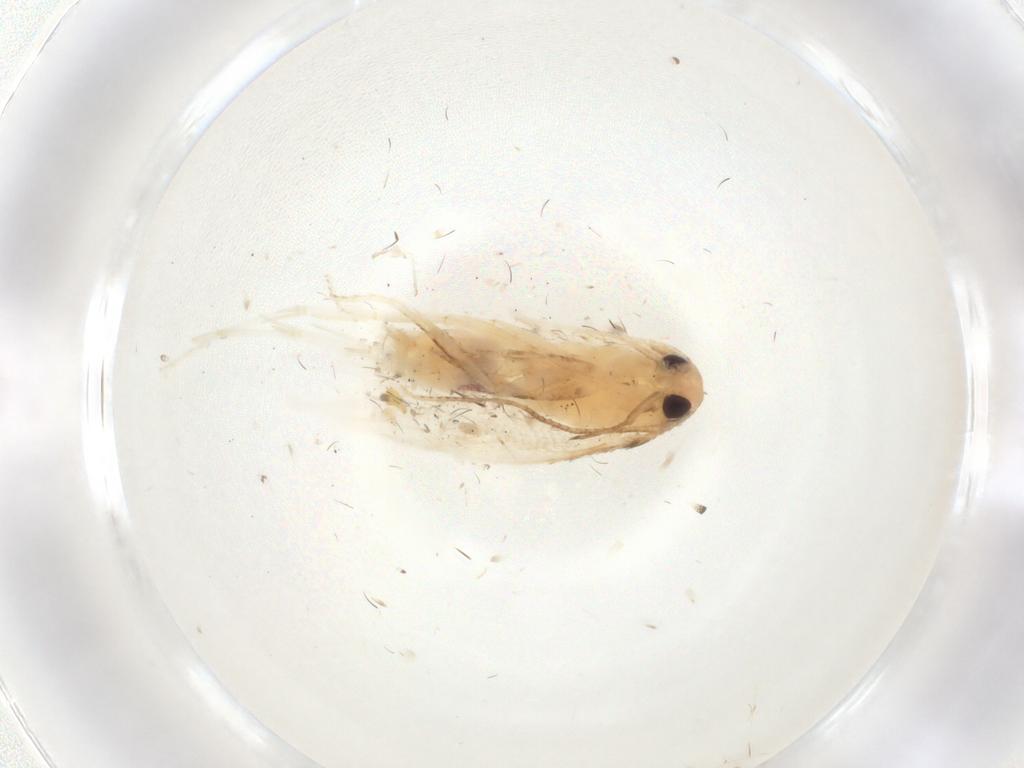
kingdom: Animalia
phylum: Arthropoda
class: Insecta
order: Lepidoptera
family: Gelechiidae
